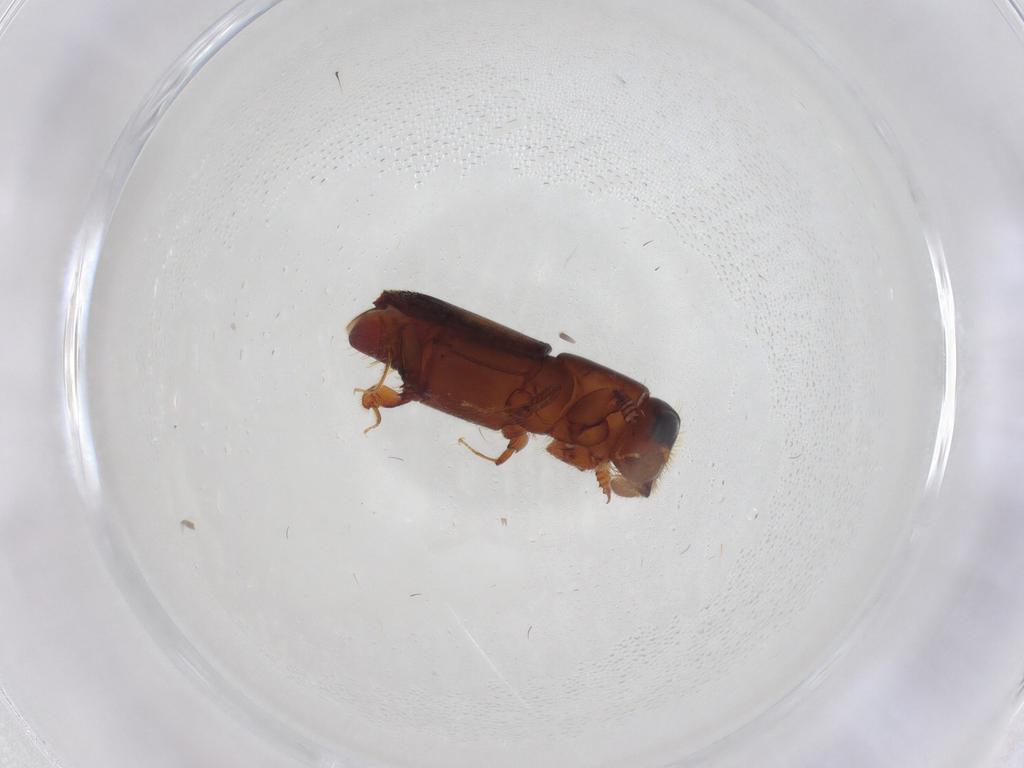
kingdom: Animalia
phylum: Arthropoda
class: Insecta
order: Coleoptera
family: Curculionidae
